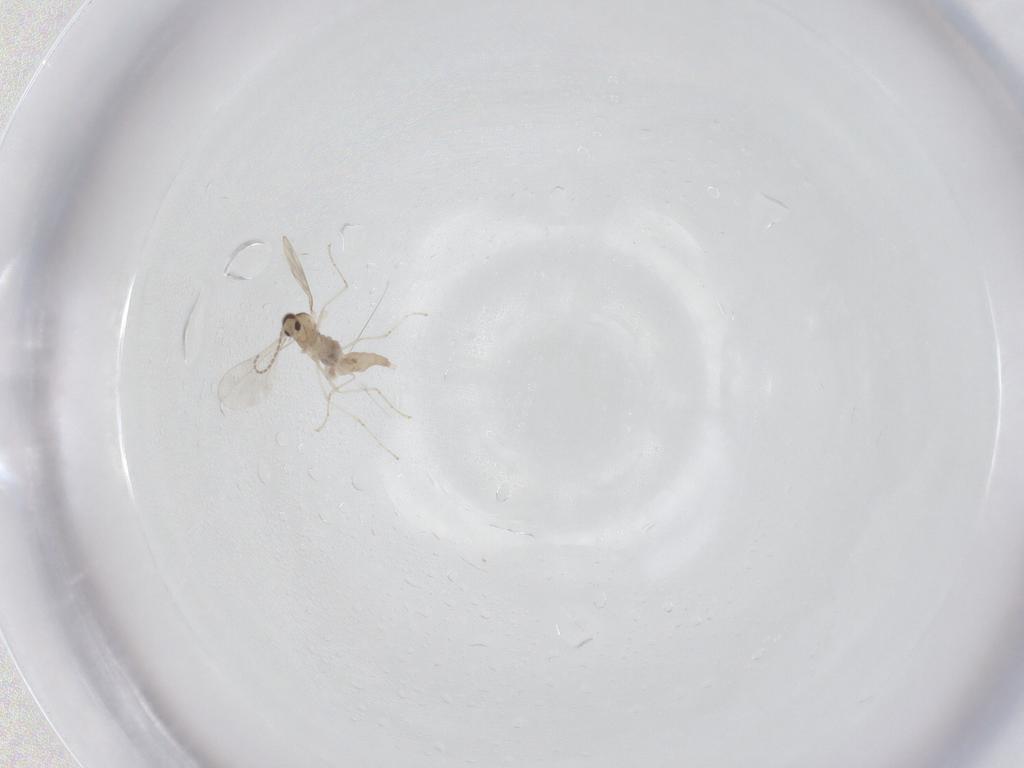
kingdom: Animalia
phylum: Arthropoda
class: Insecta
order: Diptera
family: Cecidomyiidae
